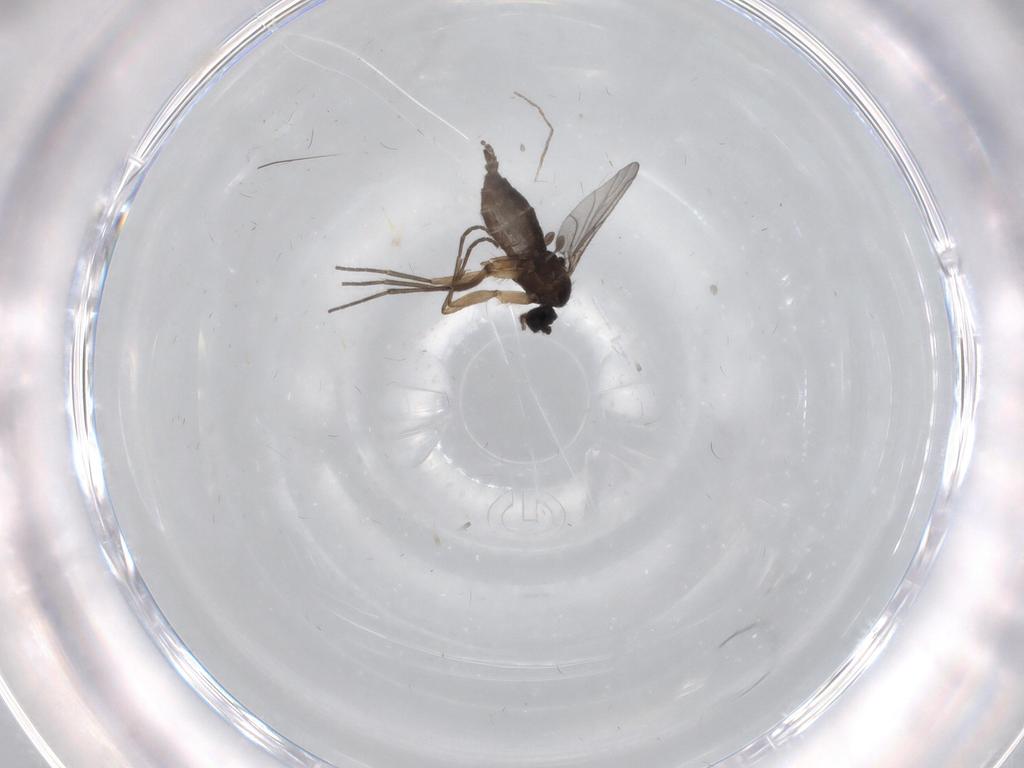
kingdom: Animalia
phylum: Arthropoda
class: Insecta
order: Diptera
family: Sciaridae
